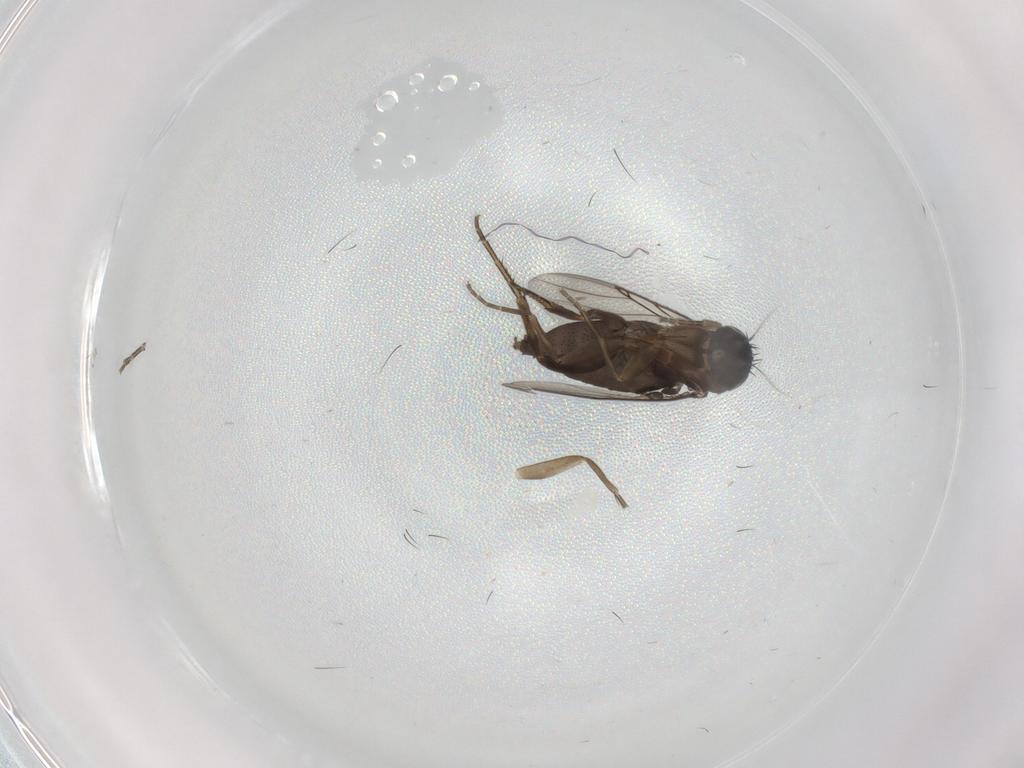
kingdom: Animalia
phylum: Arthropoda
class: Insecta
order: Diptera
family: Phoridae
